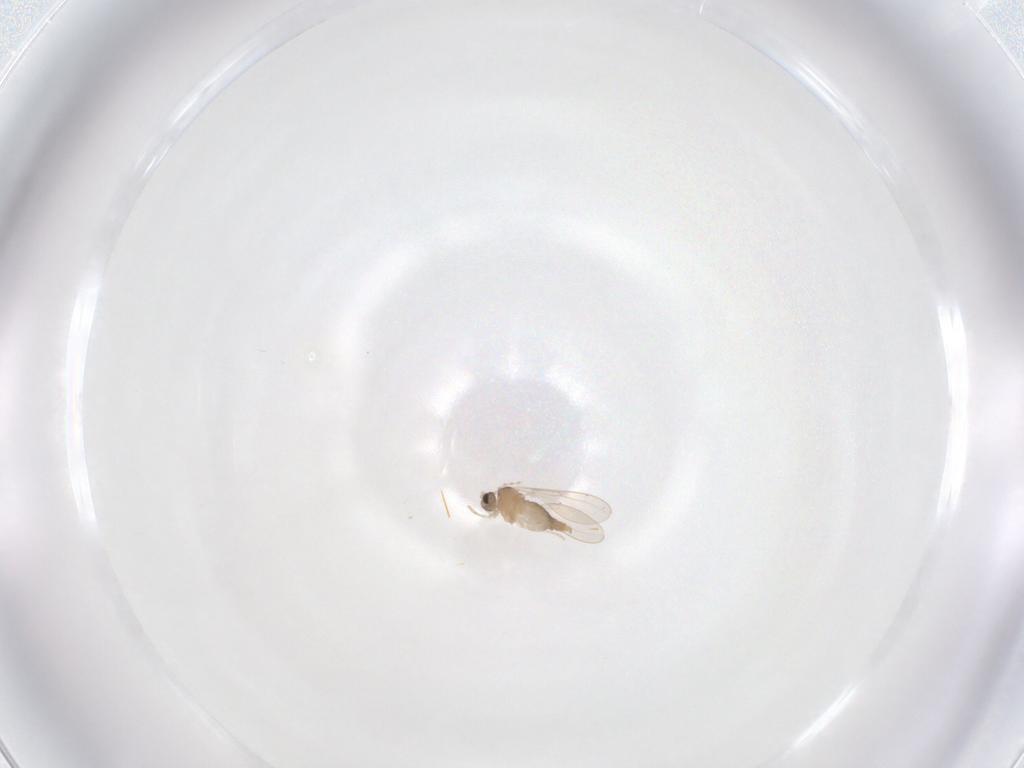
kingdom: Animalia
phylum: Arthropoda
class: Insecta
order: Diptera
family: Cecidomyiidae
